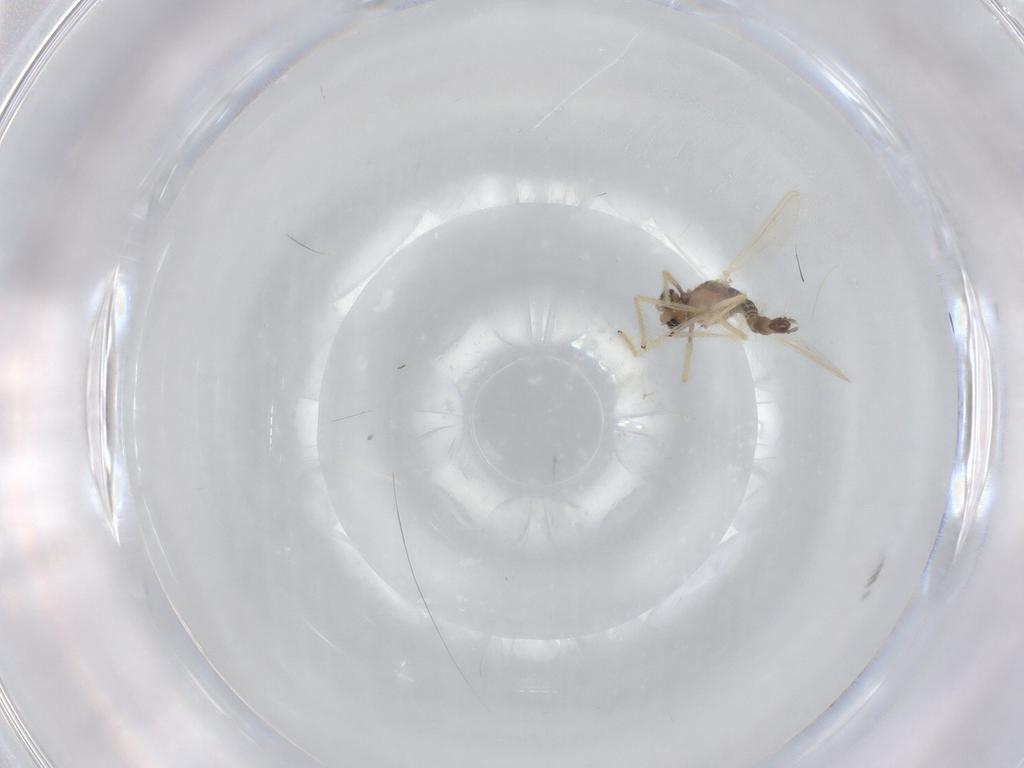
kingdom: Animalia
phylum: Arthropoda
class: Insecta
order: Diptera
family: Chironomidae
